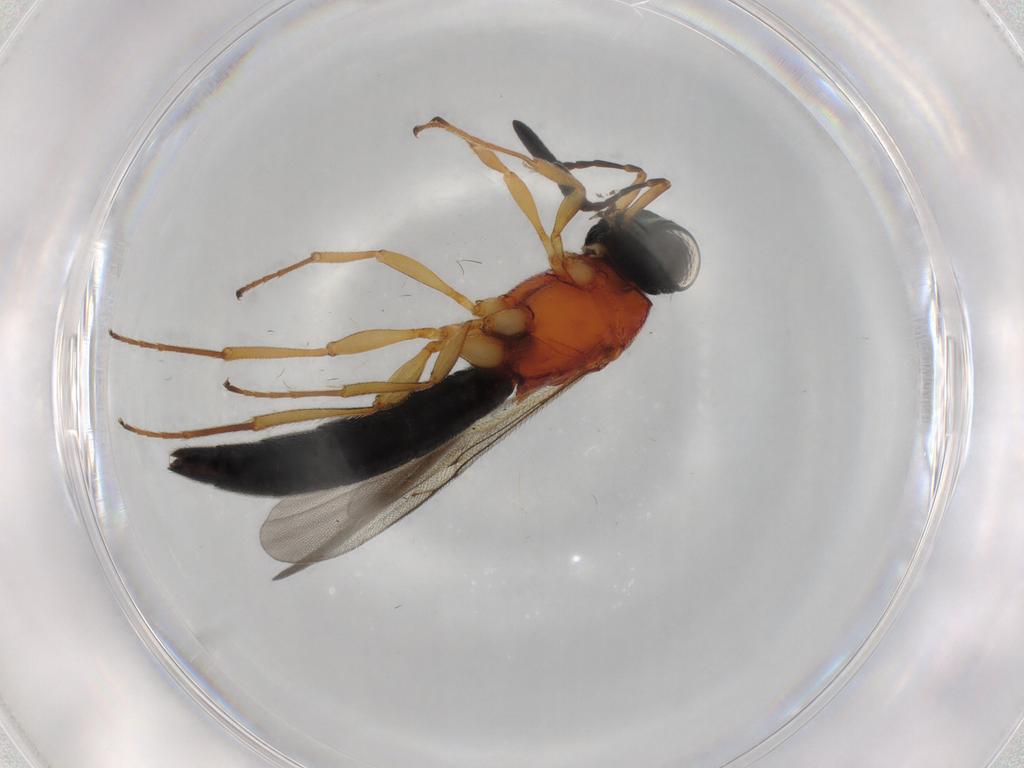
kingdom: Animalia
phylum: Arthropoda
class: Insecta
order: Hymenoptera
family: Scelionidae
